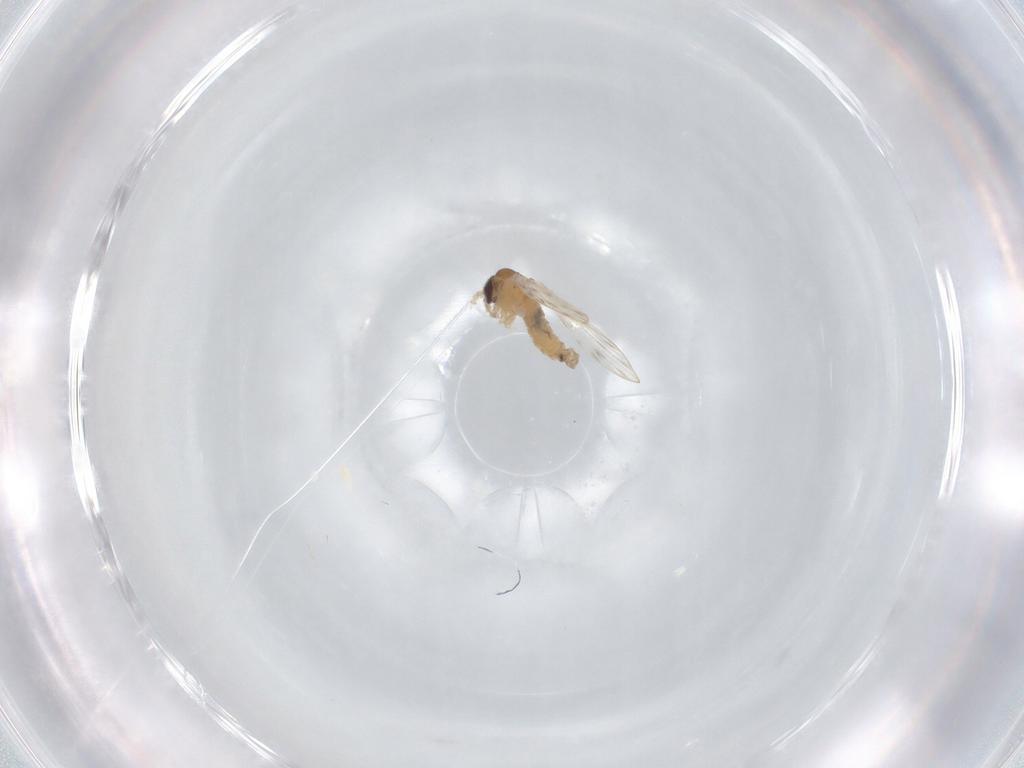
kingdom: Animalia
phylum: Arthropoda
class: Insecta
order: Diptera
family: Psychodidae
